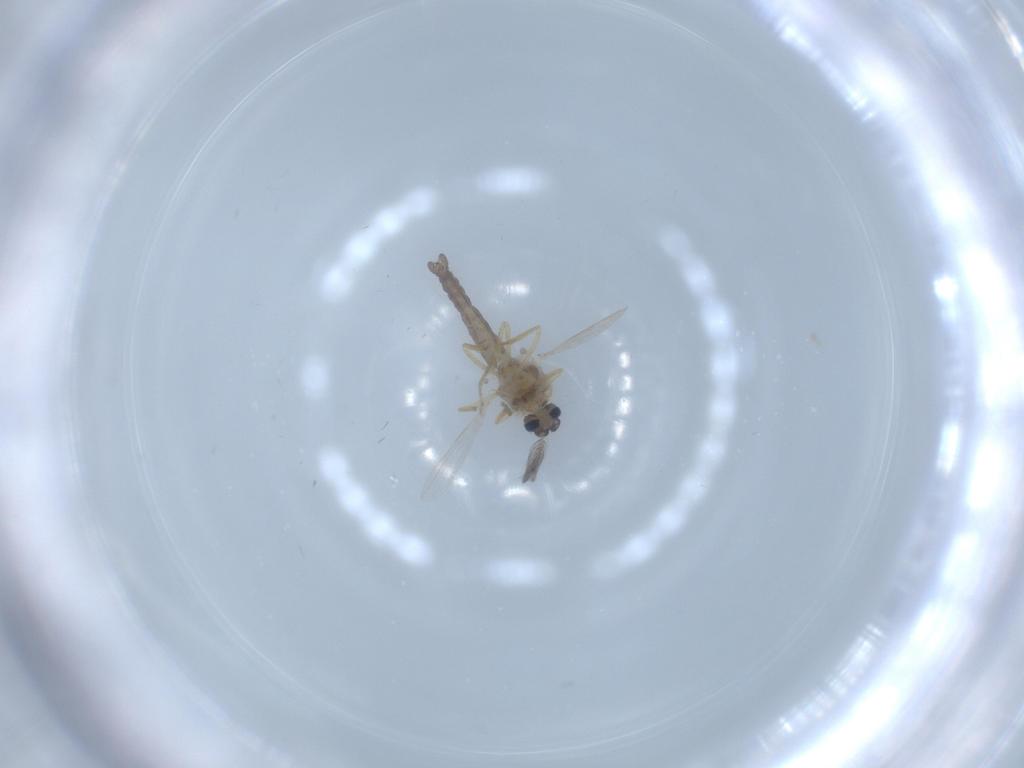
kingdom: Animalia
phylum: Arthropoda
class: Insecta
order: Diptera
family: Ceratopogonidae
